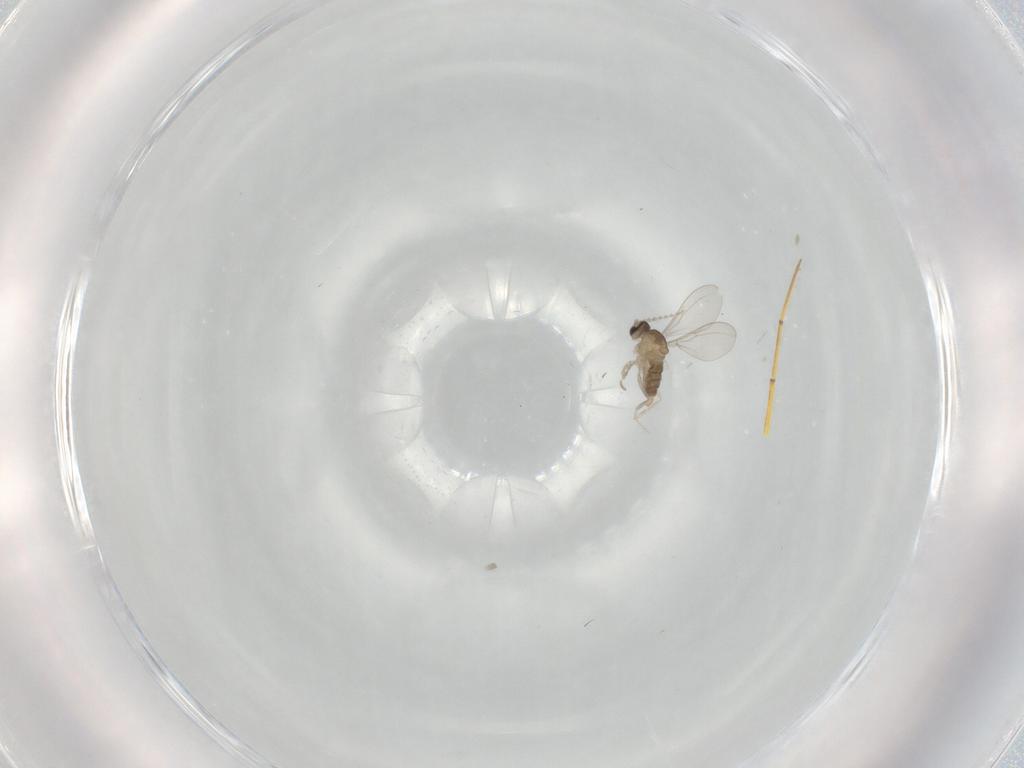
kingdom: Animalia
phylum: Arthropoda
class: Insecta
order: Diptera
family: Cecidomyiidae
